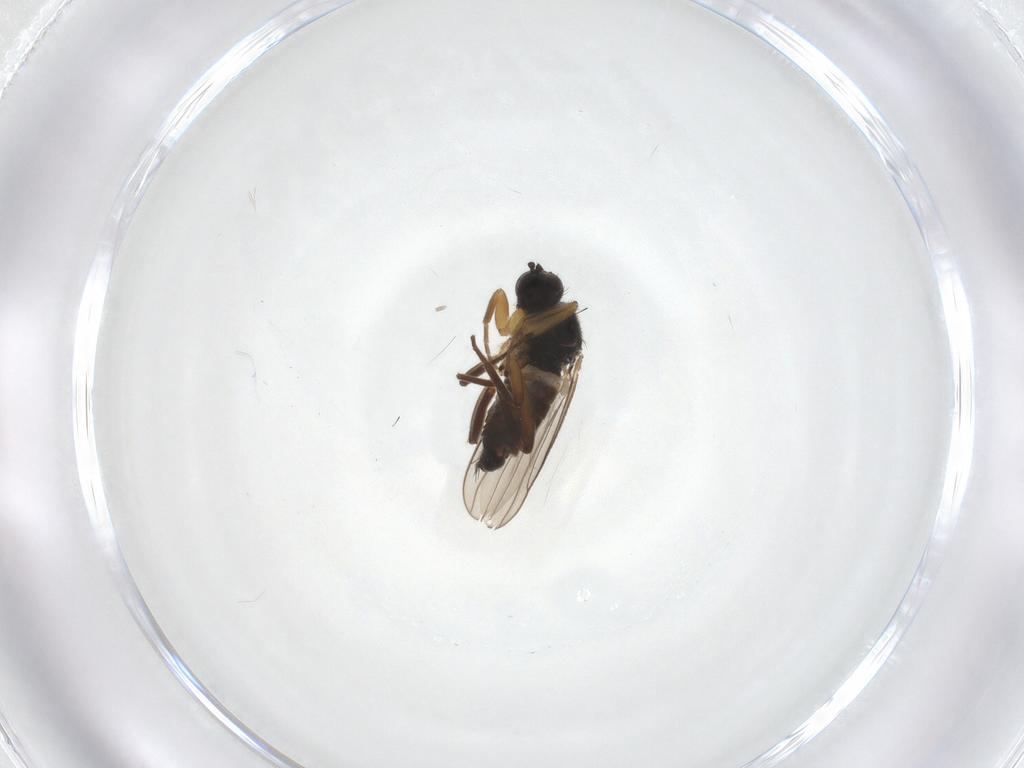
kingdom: Animalia
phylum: Arthropoda
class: Insecta
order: Diptera
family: Hybotidae
